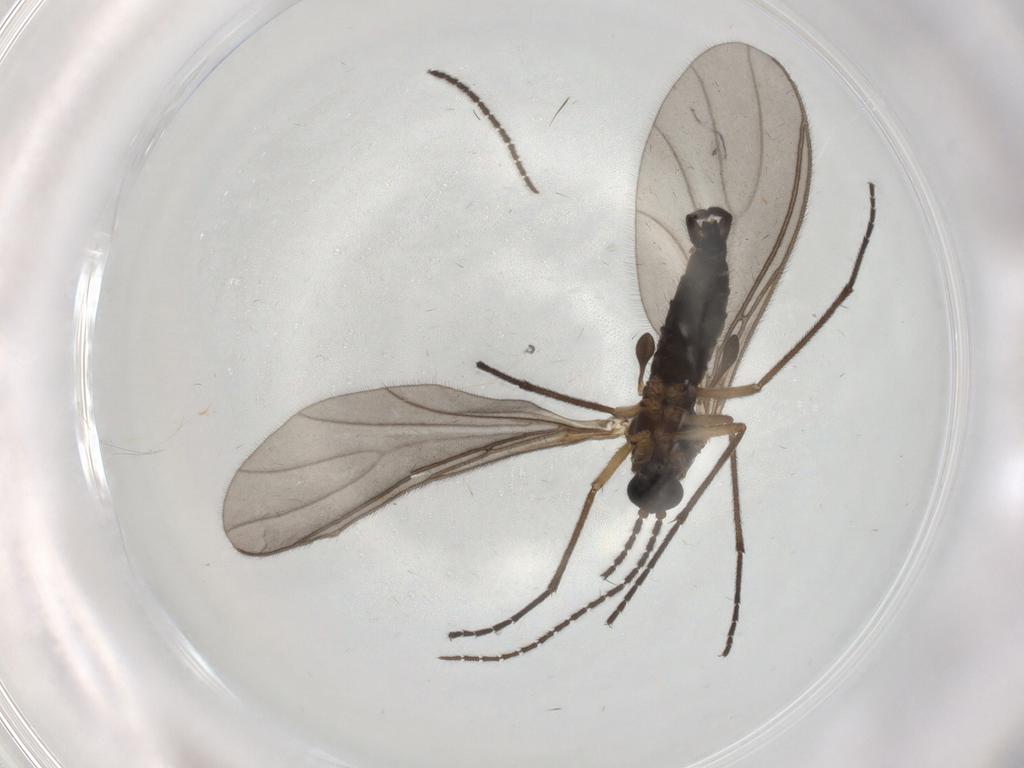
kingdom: Animalia
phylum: Arthropoda
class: Insecta
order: Diptera
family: Sciaridae
